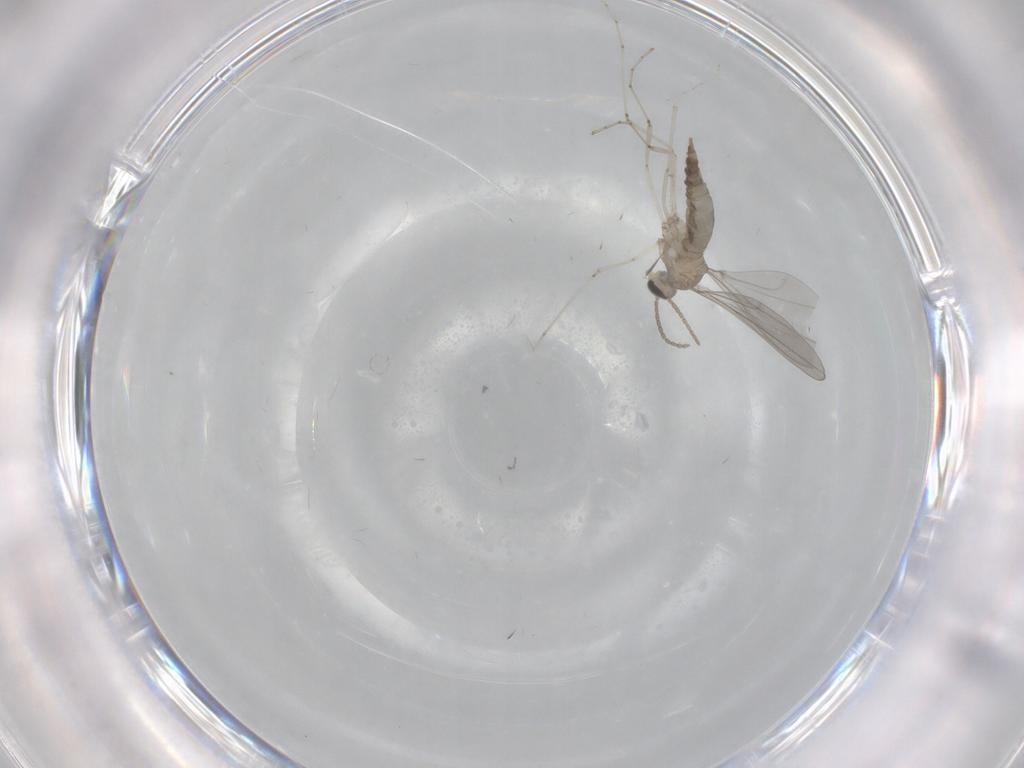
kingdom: Animalia
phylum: Arthropoda
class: Insecta
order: Diptera
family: Cecidomyiidae
